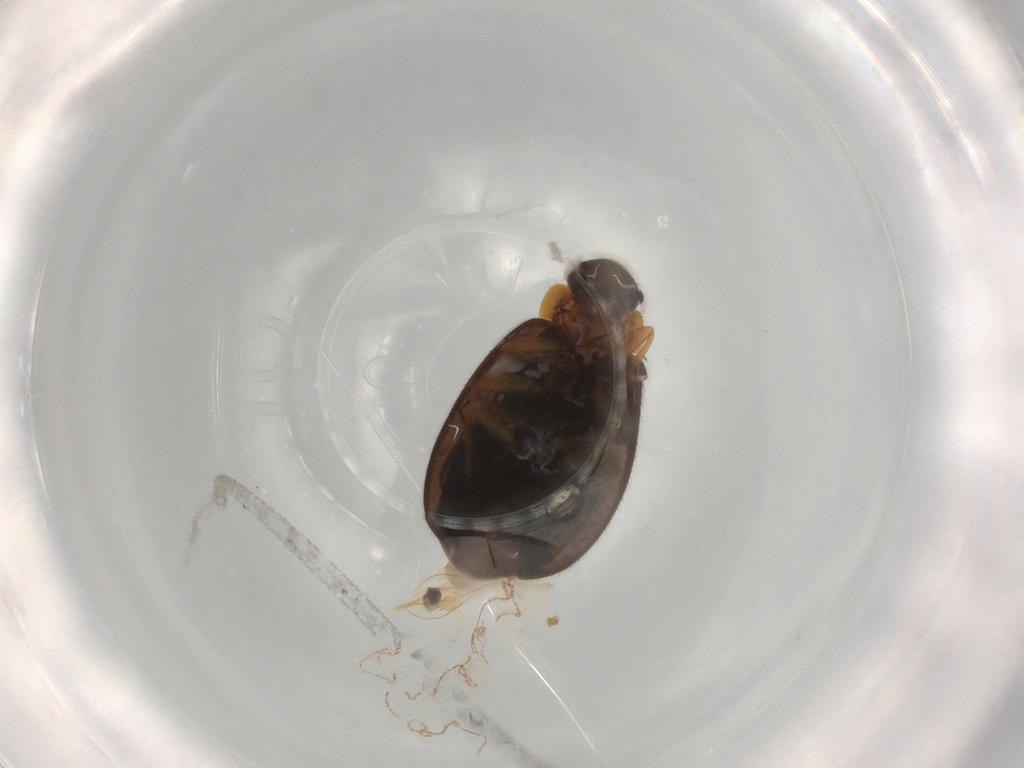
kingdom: Animalia
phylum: Arthropoda
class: Insecta
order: Coleoptera
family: Scirtidae
